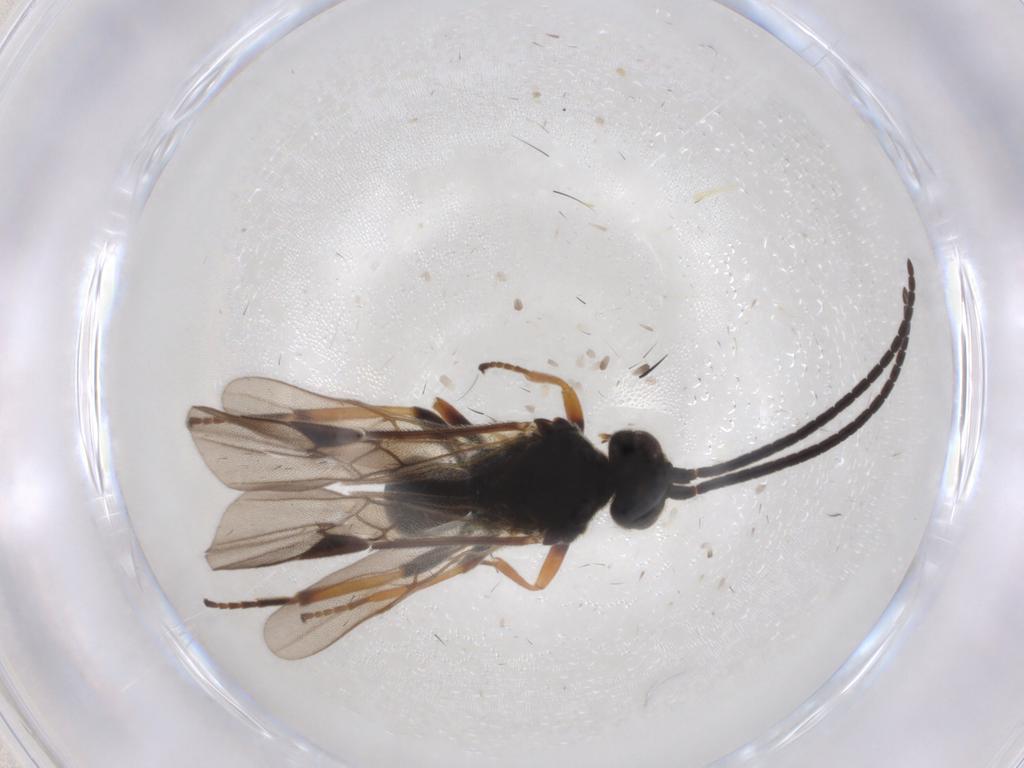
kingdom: Animalia
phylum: Arthropoda
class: Insecta
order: Hymenoptera
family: Braconidae
